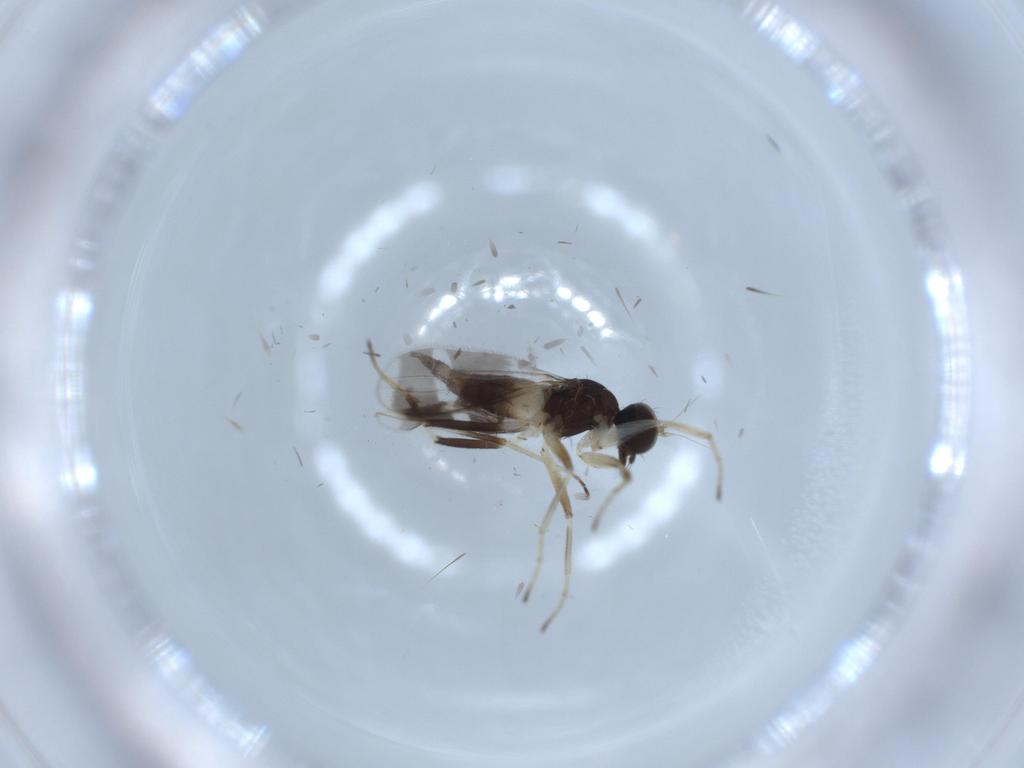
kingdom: Animalia
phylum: Arthropoda
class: Insecta
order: Diptera
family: Hybotidae
